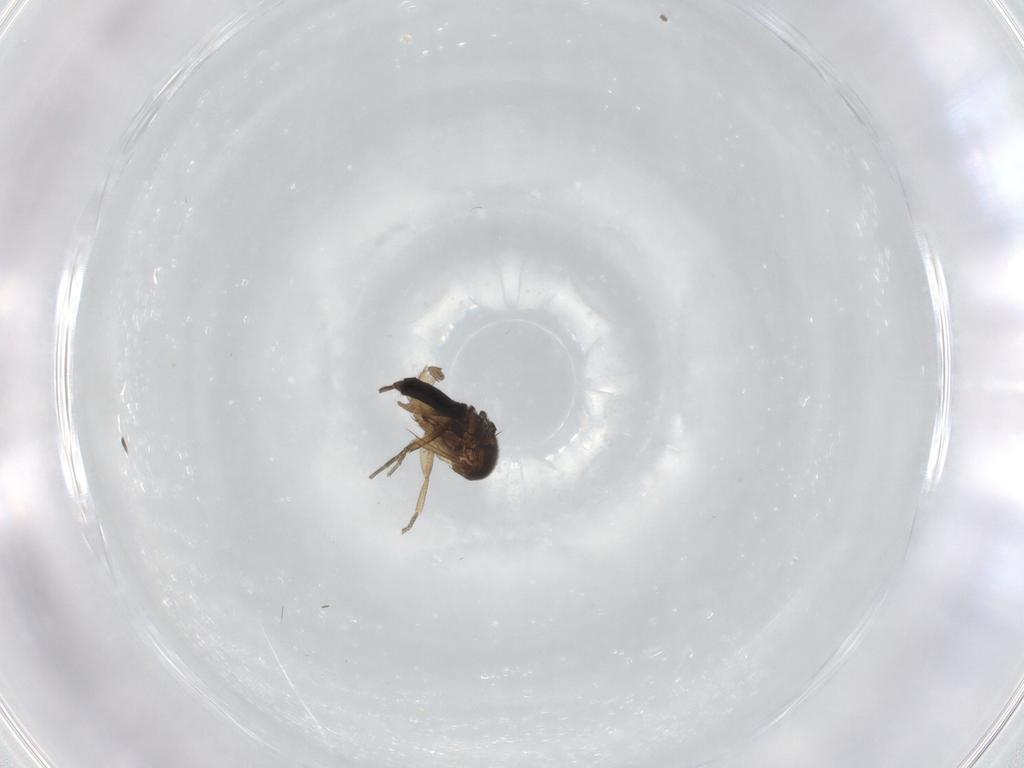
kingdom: Animalia
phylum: Arthropoda
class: Insecta
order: Diptera
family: Phoridae
